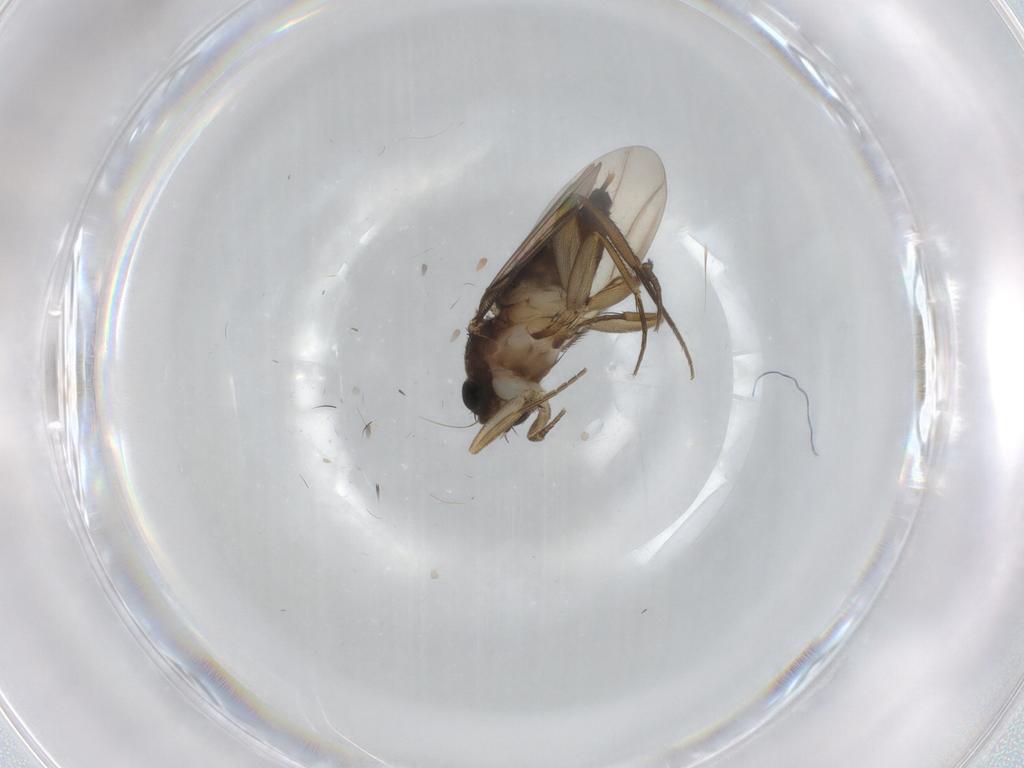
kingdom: Animalia
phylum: Arthropoda
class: Insecta
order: Diptera
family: Phoridae
